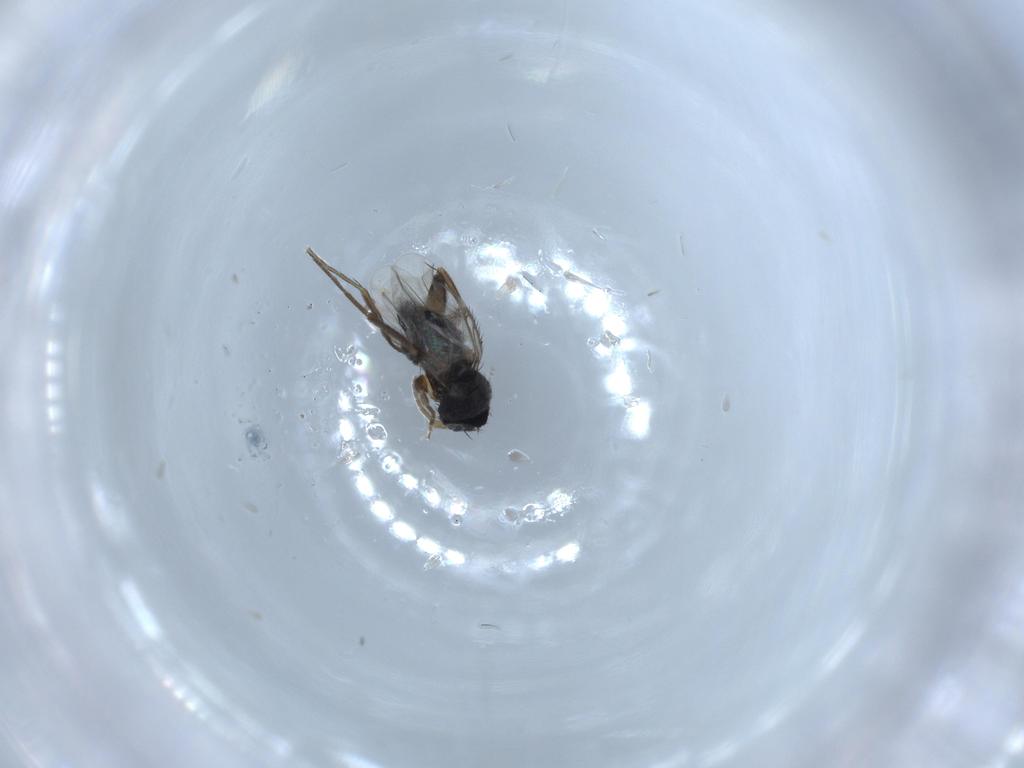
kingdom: Animalia
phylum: Arthropoda
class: Insecta
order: Diptera
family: Phoridae
